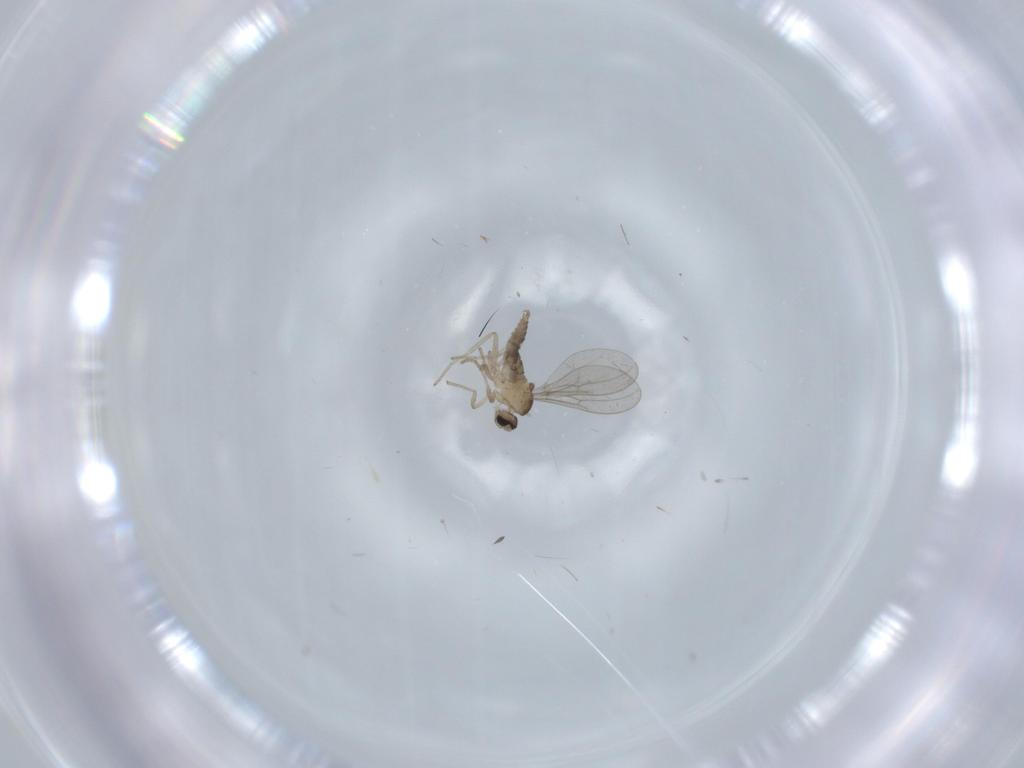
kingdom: Animalia
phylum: Arthropoda
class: Insecta
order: Diptera
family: Cecidomyiidae
